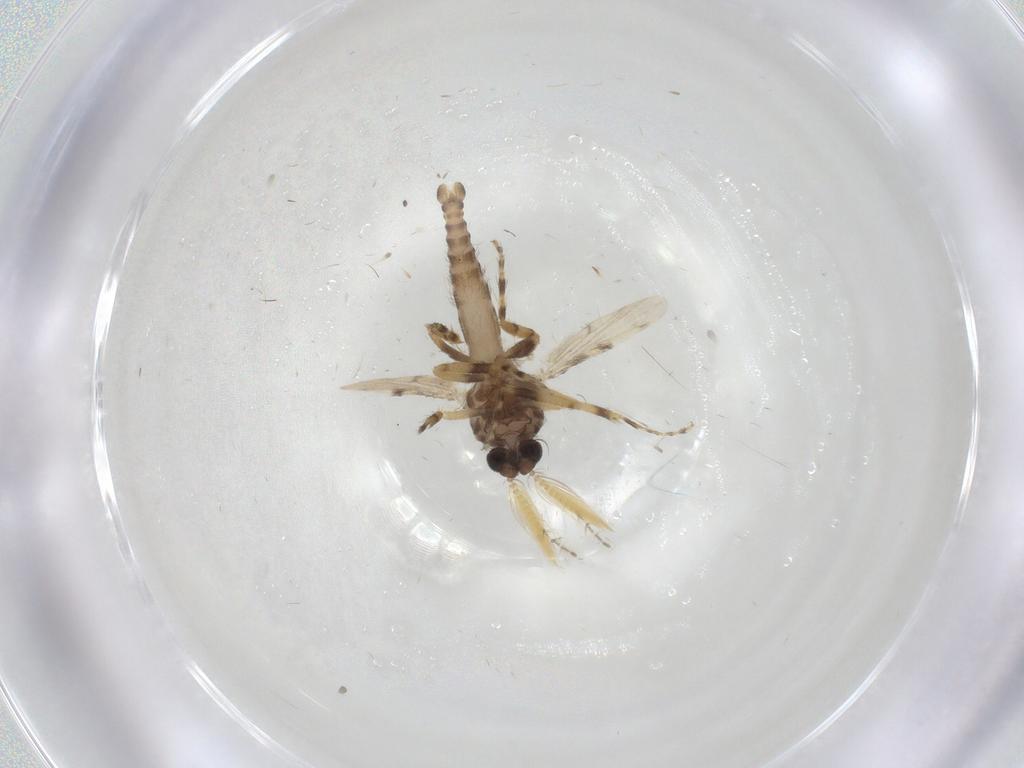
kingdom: Animalia
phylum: Arthropoda
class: Insecta
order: Diptera
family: Ceratopogonidae
